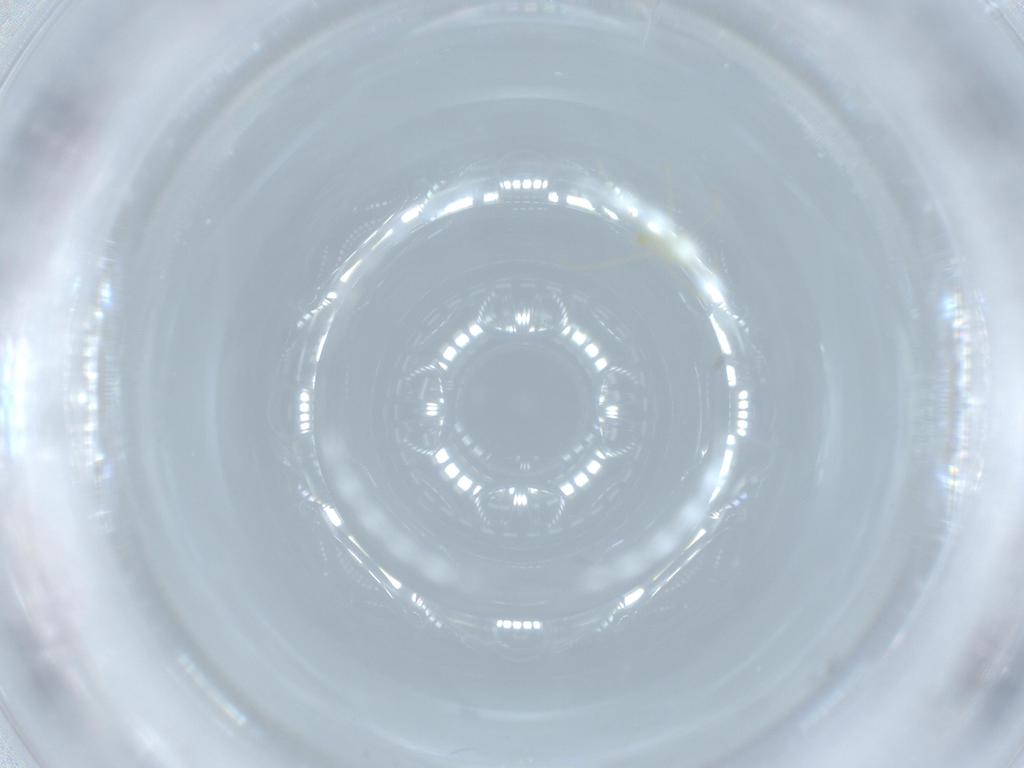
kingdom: Animalia
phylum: Arthropoda
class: Arachnida
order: Trombidiformes
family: Erythraeidae
